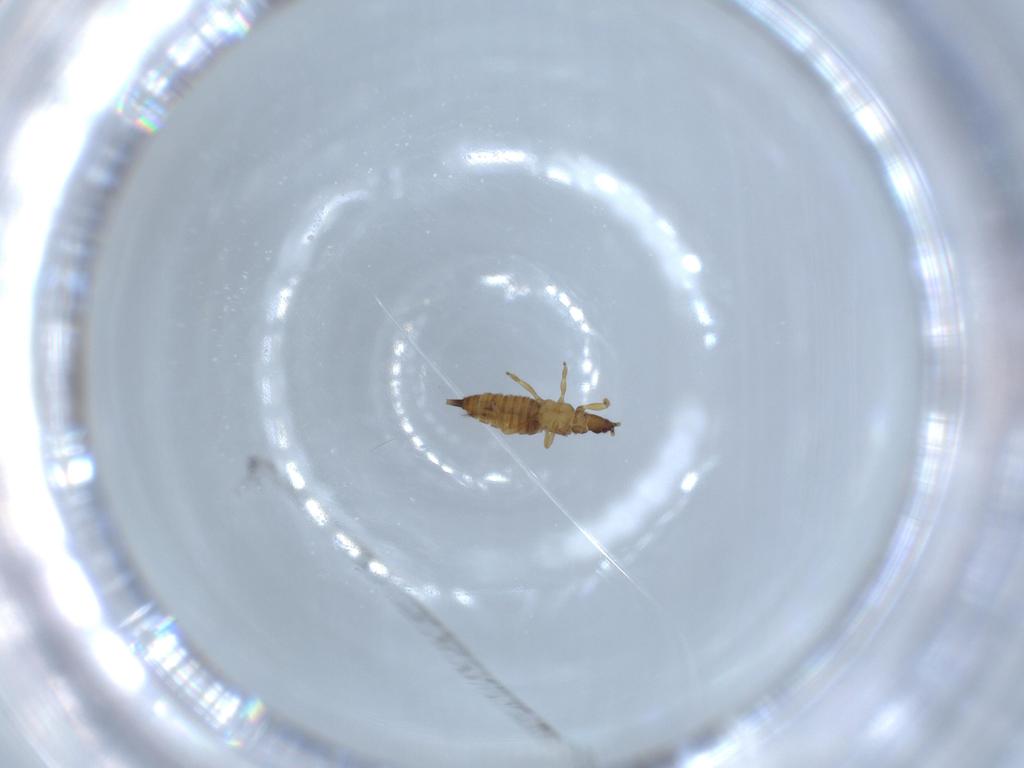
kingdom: Animalia
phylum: Arthropoda
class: Insecta
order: Thysanoptera
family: Phlaeothripidae
